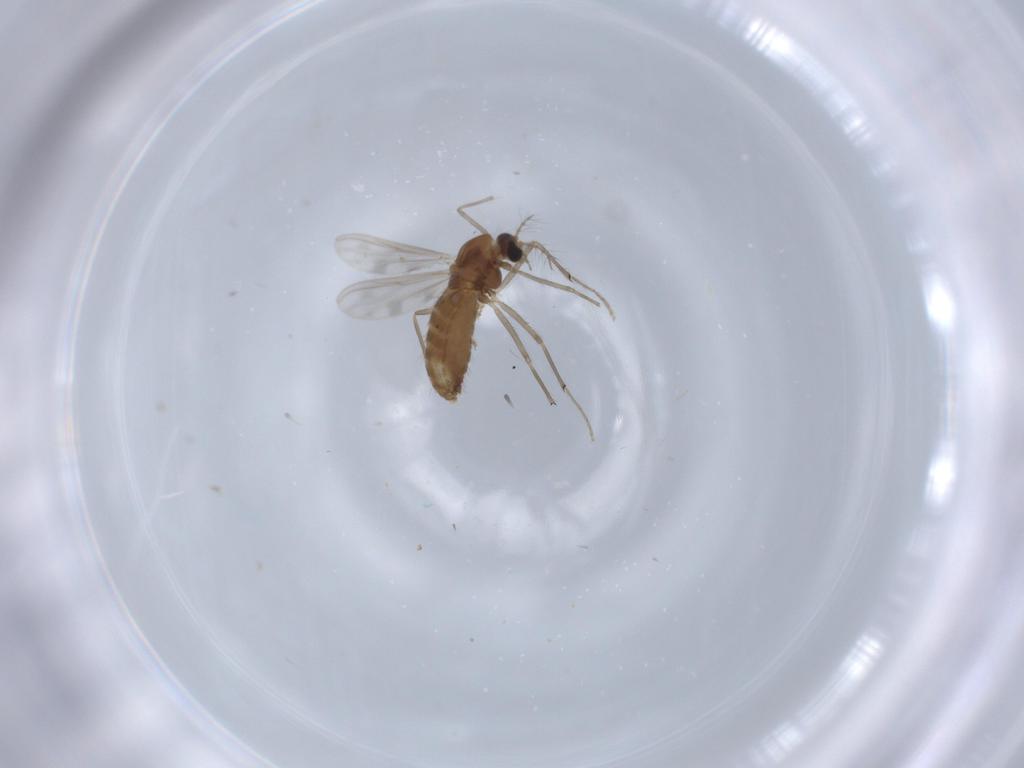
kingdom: Animalia
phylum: Arthropoda
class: Insecta
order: Diptera
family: Chironomidae
